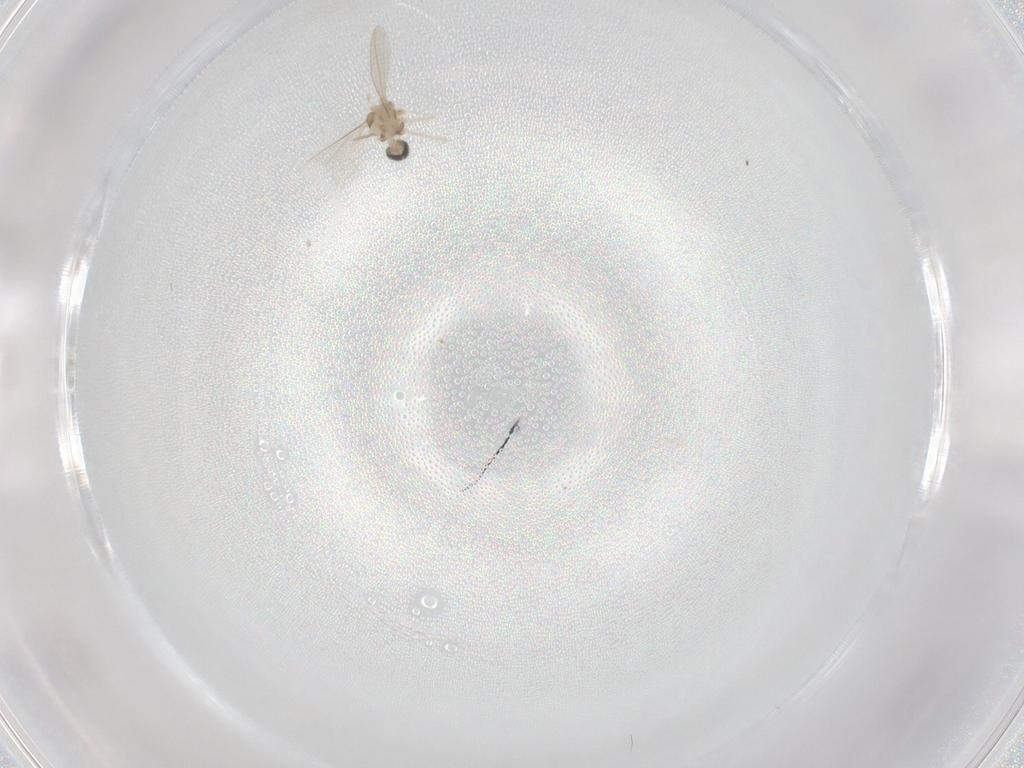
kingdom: Animalia
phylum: Arthropoda
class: Insecta
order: Diptera
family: Cecidomyiidae
